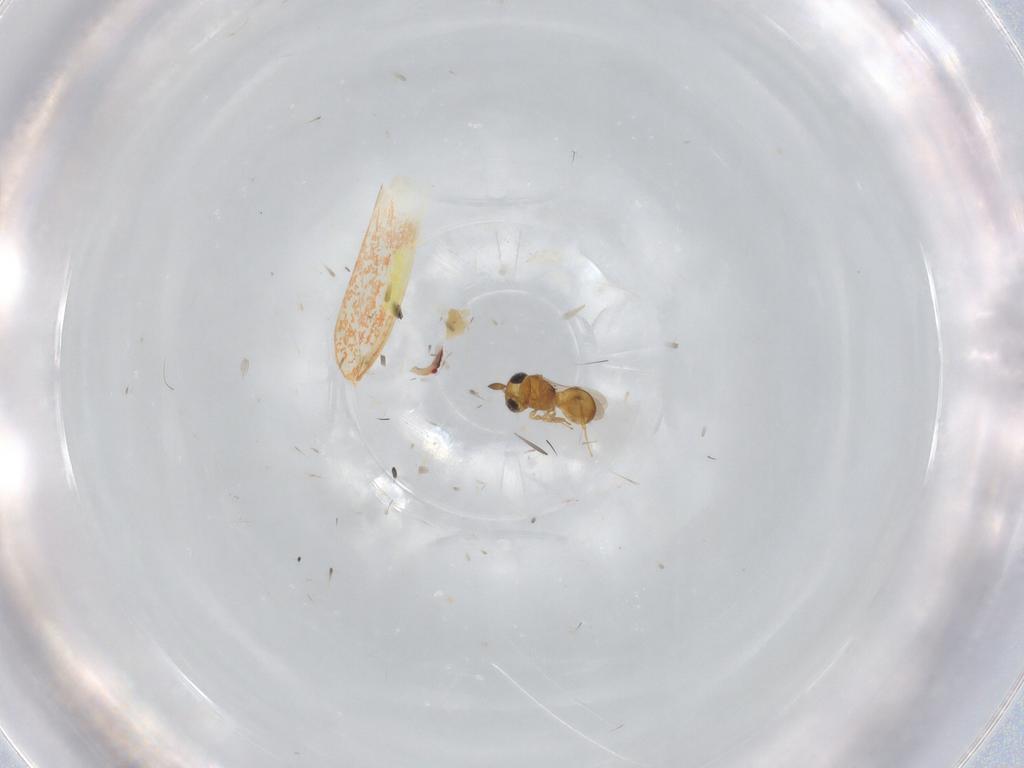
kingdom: Animalia
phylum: Arthropoda
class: Insecta
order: Hymenoptera
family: Scelionidae
